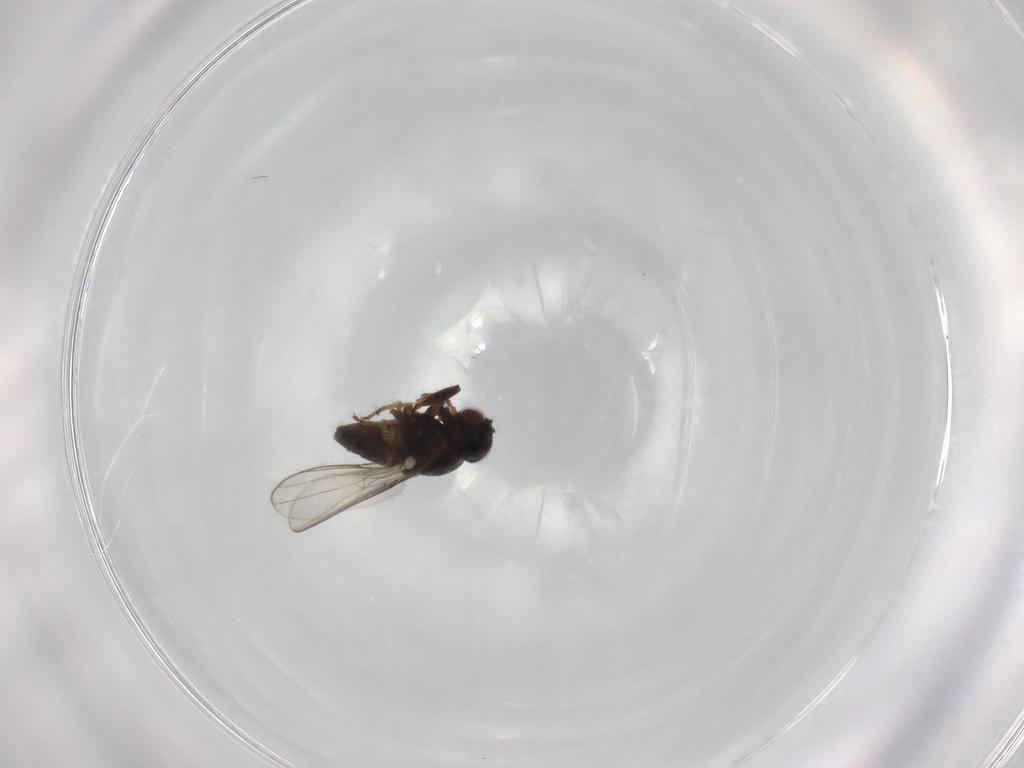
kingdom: Animalia
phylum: Arthropoda
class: Insecta
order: Diptera
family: Chloropidae
